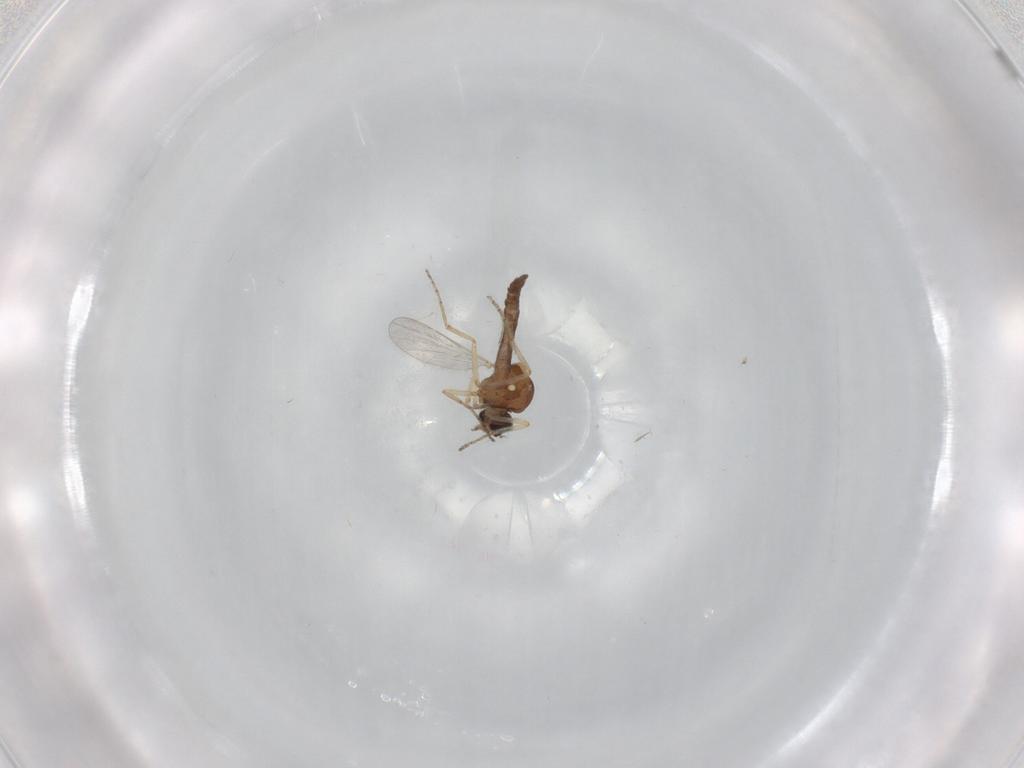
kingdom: Animalia
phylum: Arthropoda
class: Insecta
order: Diptera
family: Ceratopogonidae
